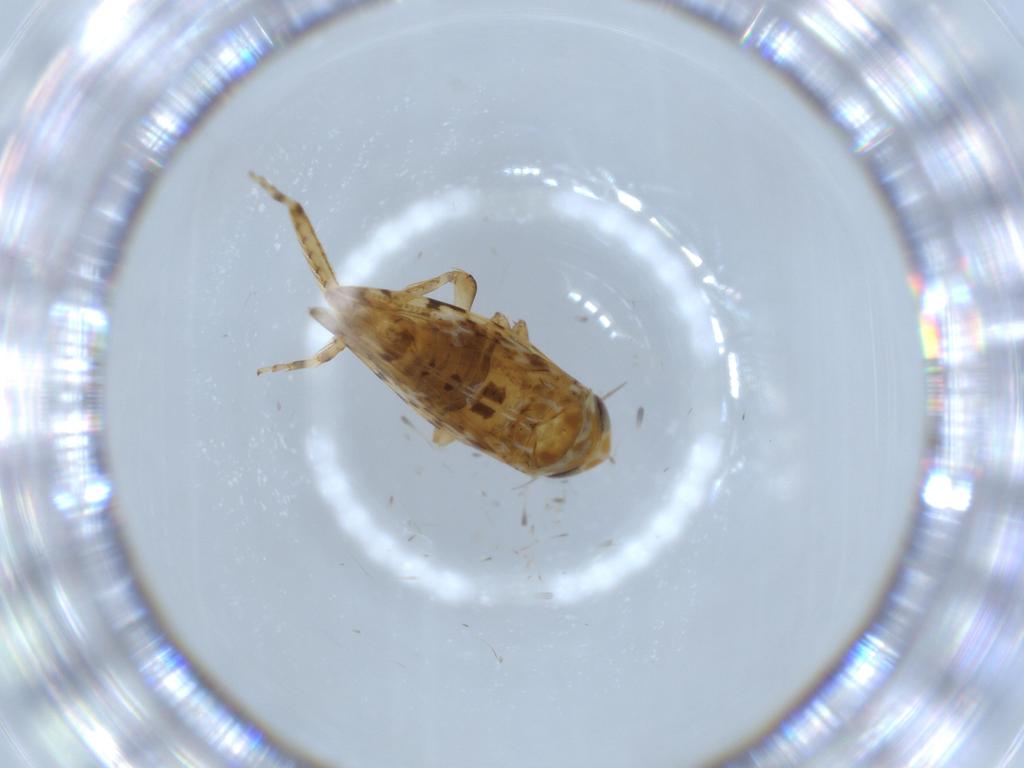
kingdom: Animalia
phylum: Arthropoda
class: Insecta
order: Hemiptera
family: Cicadellidae
